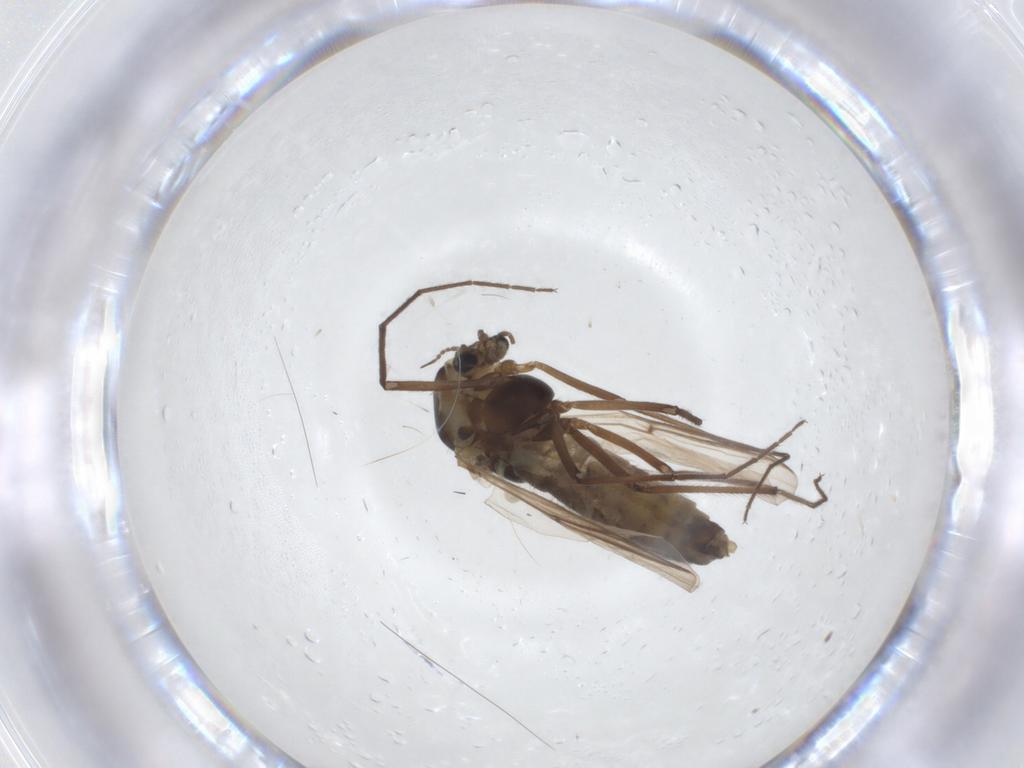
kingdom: Animalia
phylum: Arthropoda
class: Insecta
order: Diptera
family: Chironomidae
